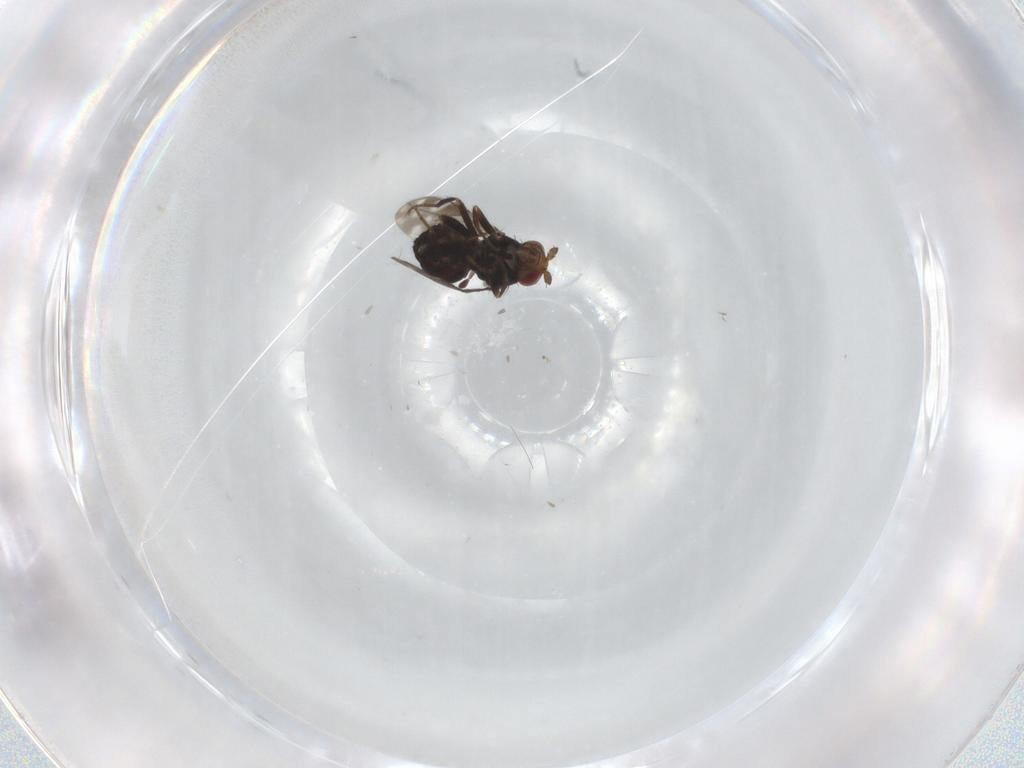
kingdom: Animalia
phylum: Arthropoda
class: Insecta
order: Diptera
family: Sphaeroceridae
